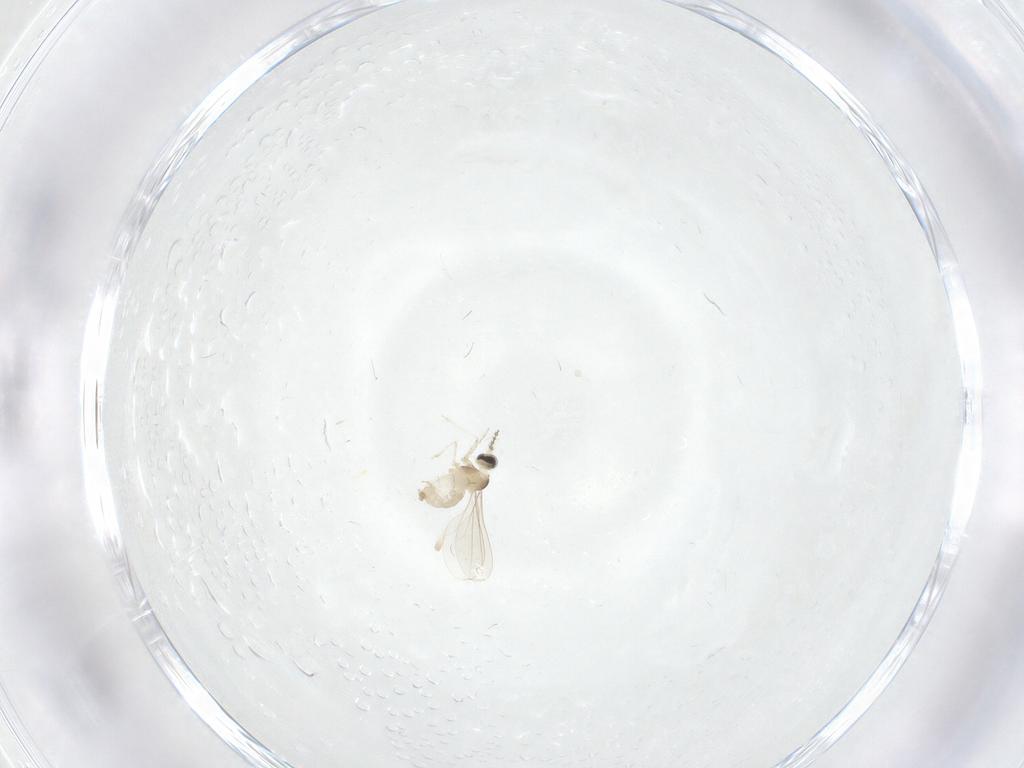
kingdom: Animalia
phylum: Arthropoda
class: Insecta
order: Diptera
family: Cecidomyiidae
